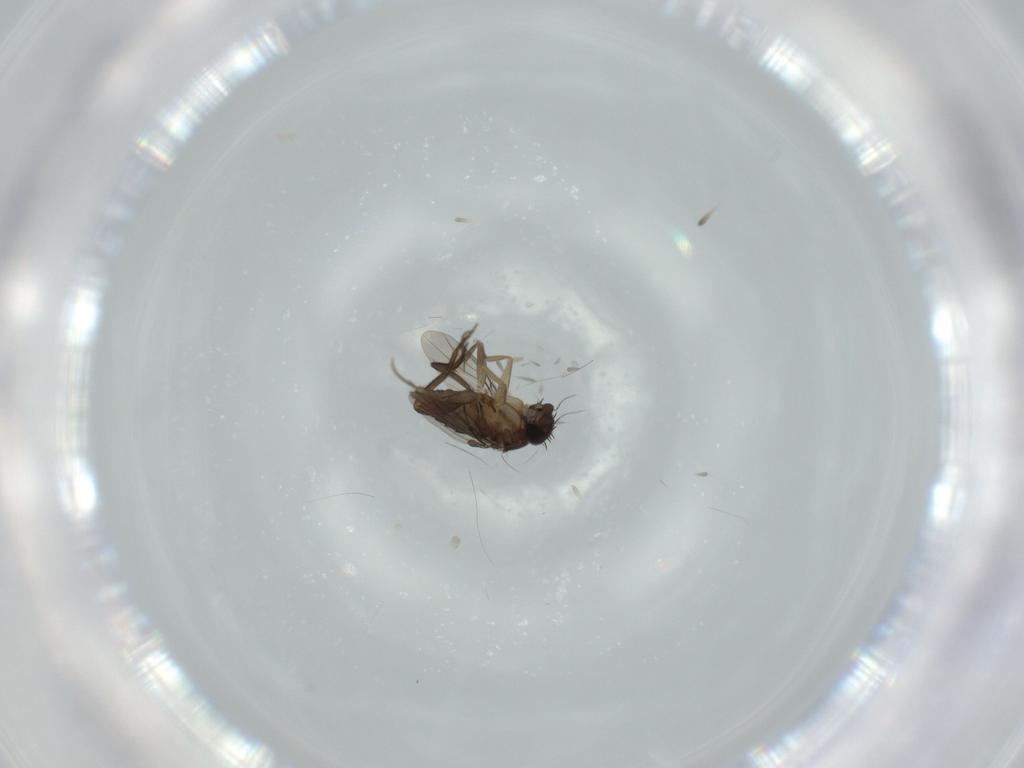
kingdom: Animalia
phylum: Arthropoda
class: Insecta
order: Diptera
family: Phoridae
